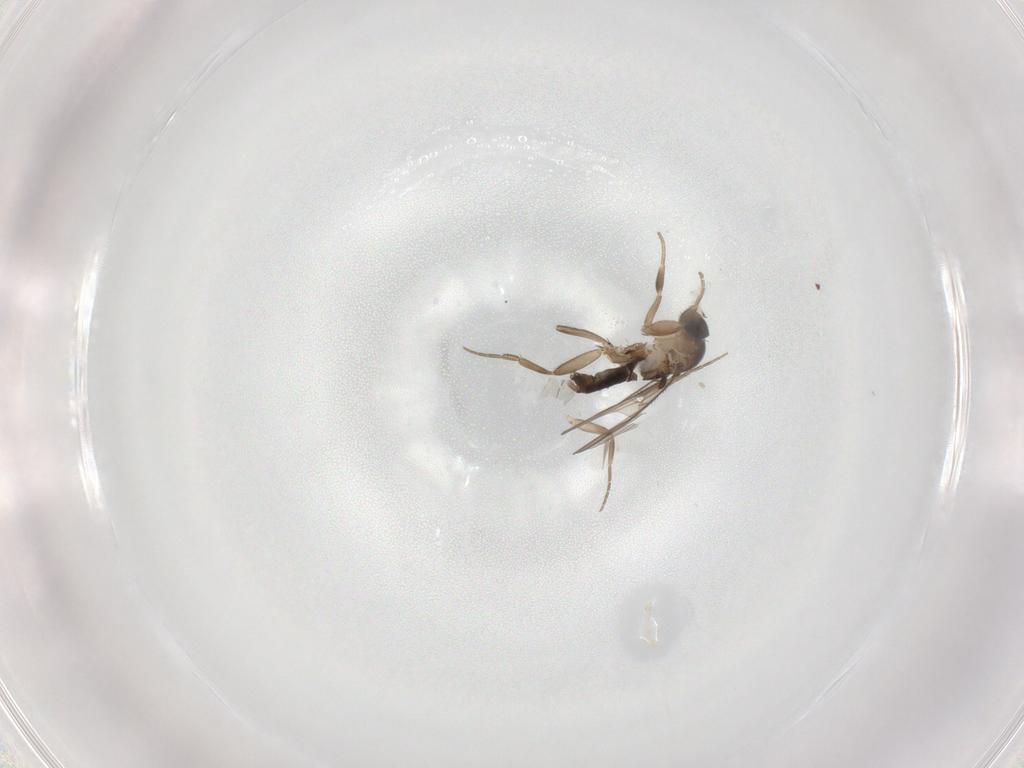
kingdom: Animalia
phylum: Arthropoda
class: Insecta
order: Diptera
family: Phoridae
